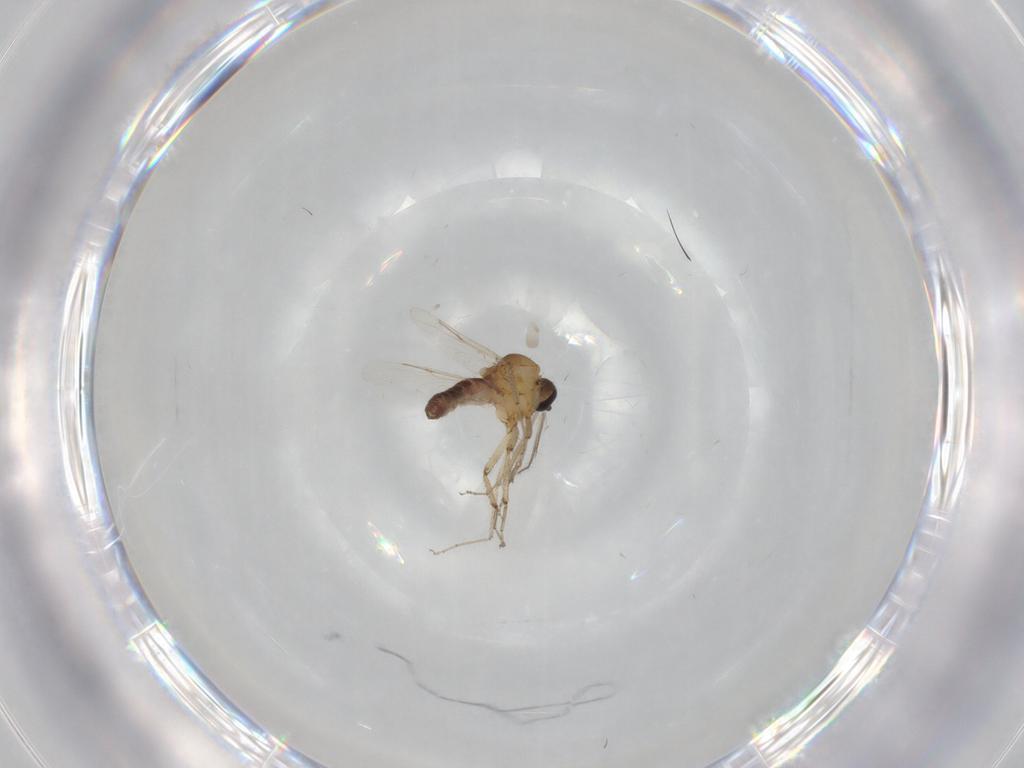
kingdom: Animalia
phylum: Arthropoda
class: Insecta
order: Diptera
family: Ceratopogonidae
